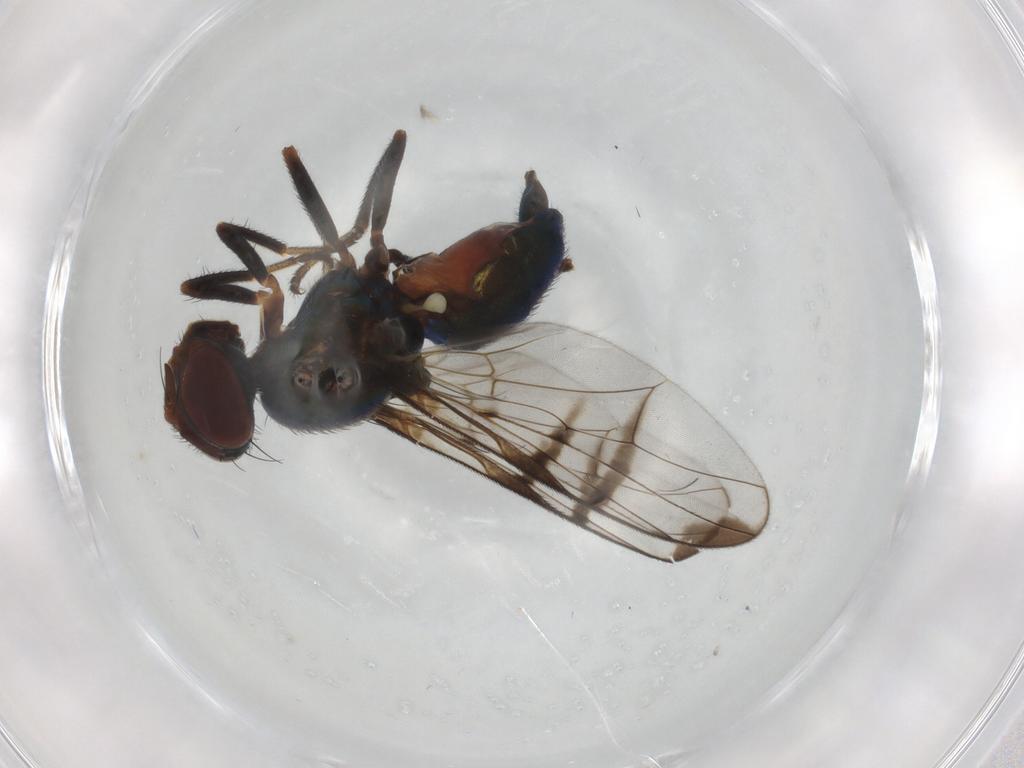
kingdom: Animalia
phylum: Arthropoda
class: Insecta
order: Diptera
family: Platystomatidae
